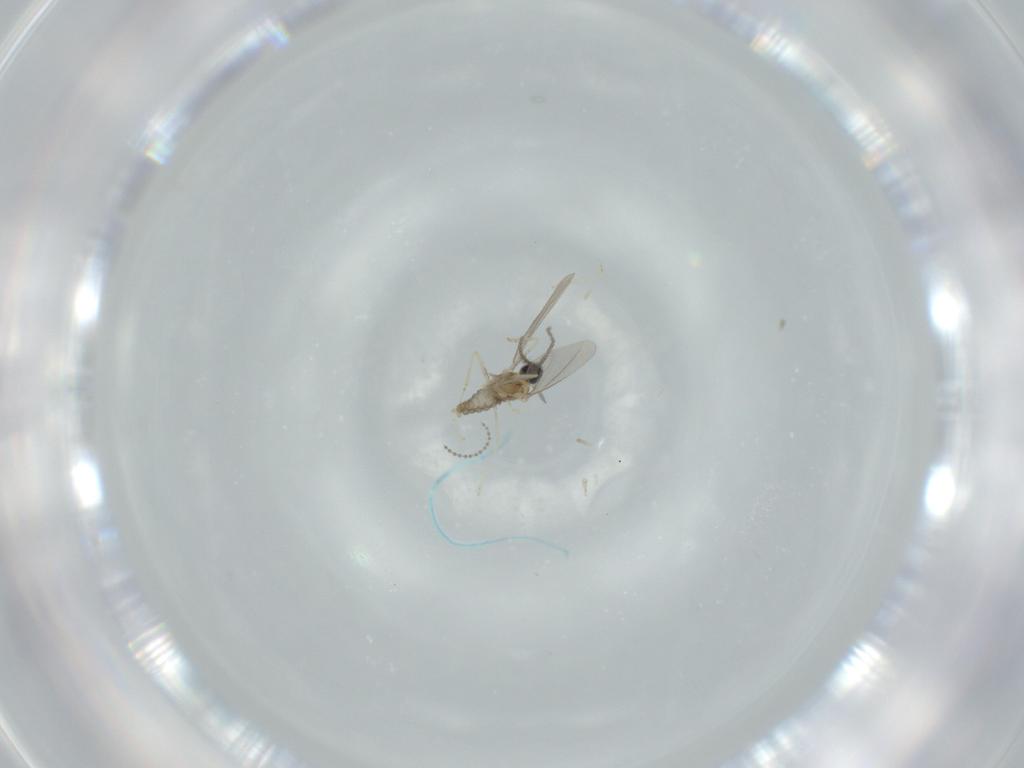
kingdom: Animalia
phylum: Arthropoda
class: Insecta
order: Diptera
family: Cecidomyiidae
